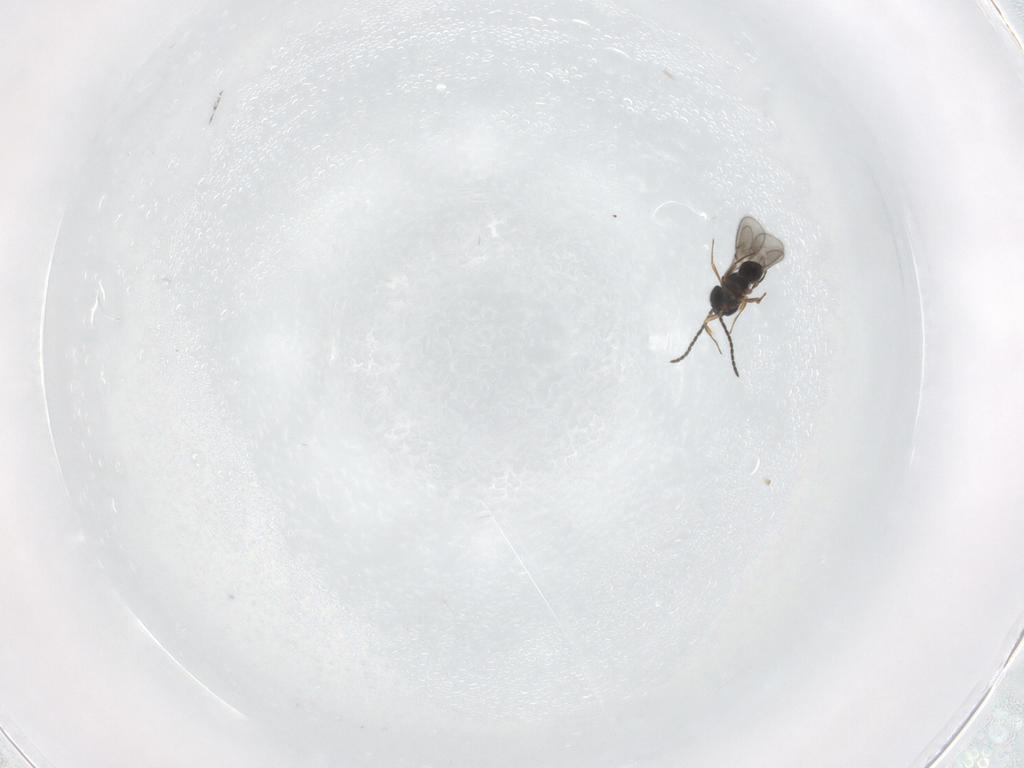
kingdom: Animalia
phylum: Arthropoda
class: Insecta
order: Hymenoptera
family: Scelionidae
